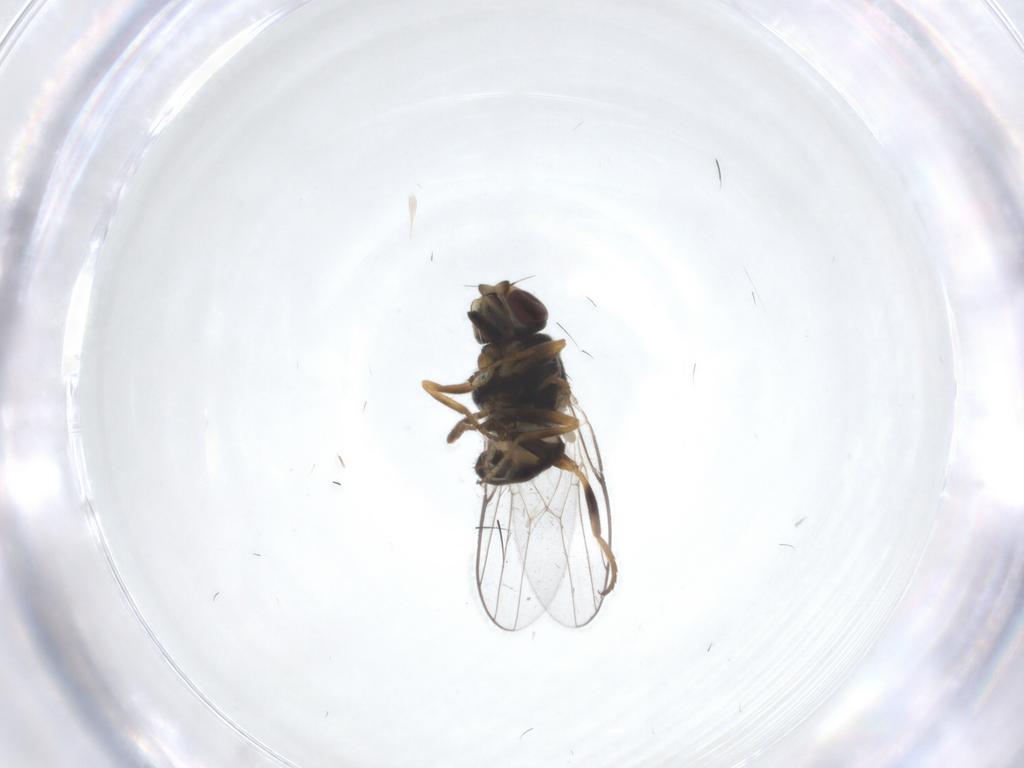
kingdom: Animalia
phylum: Arthropoda
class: Insecta
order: Diptera
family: Chloropidae
